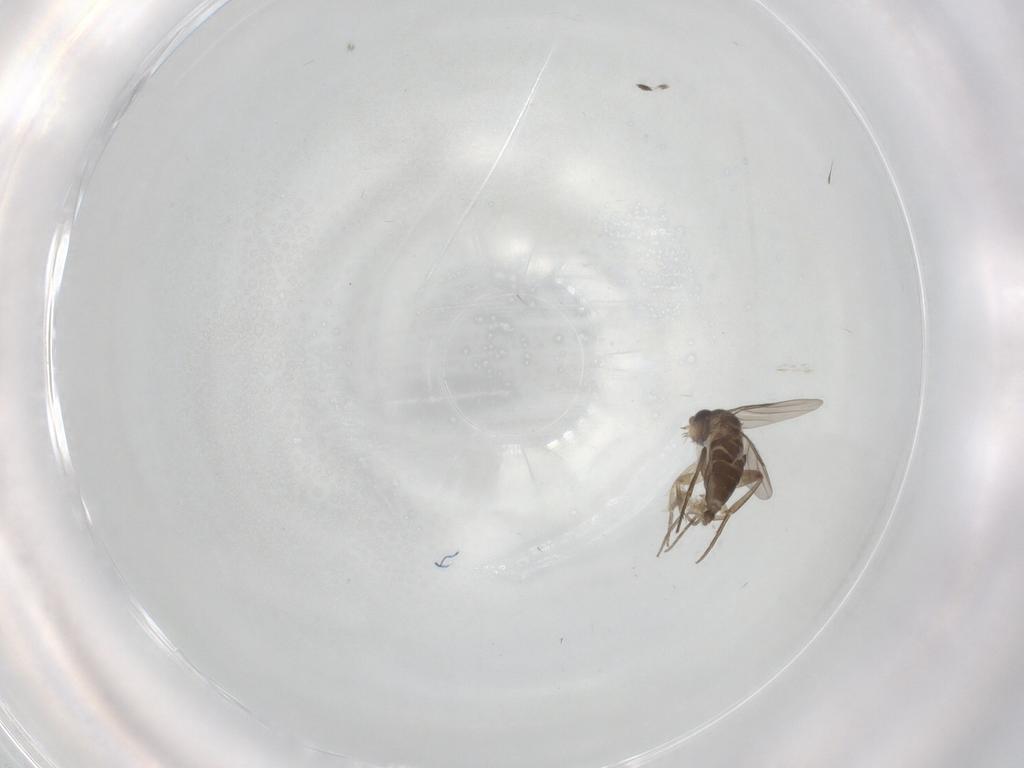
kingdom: Animalia
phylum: Arthropoda
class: Insecta
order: Diptera
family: Phoridae
